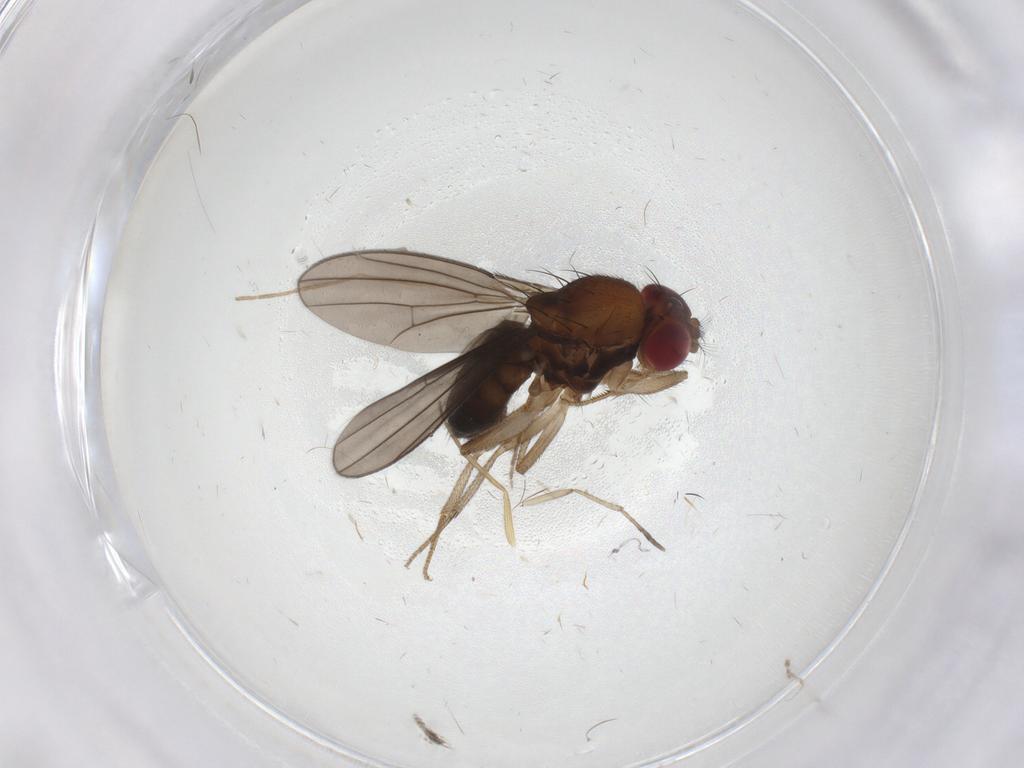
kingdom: Animalia
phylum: Arthropoda
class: Insecta
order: Diptera
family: Drosophilidae
